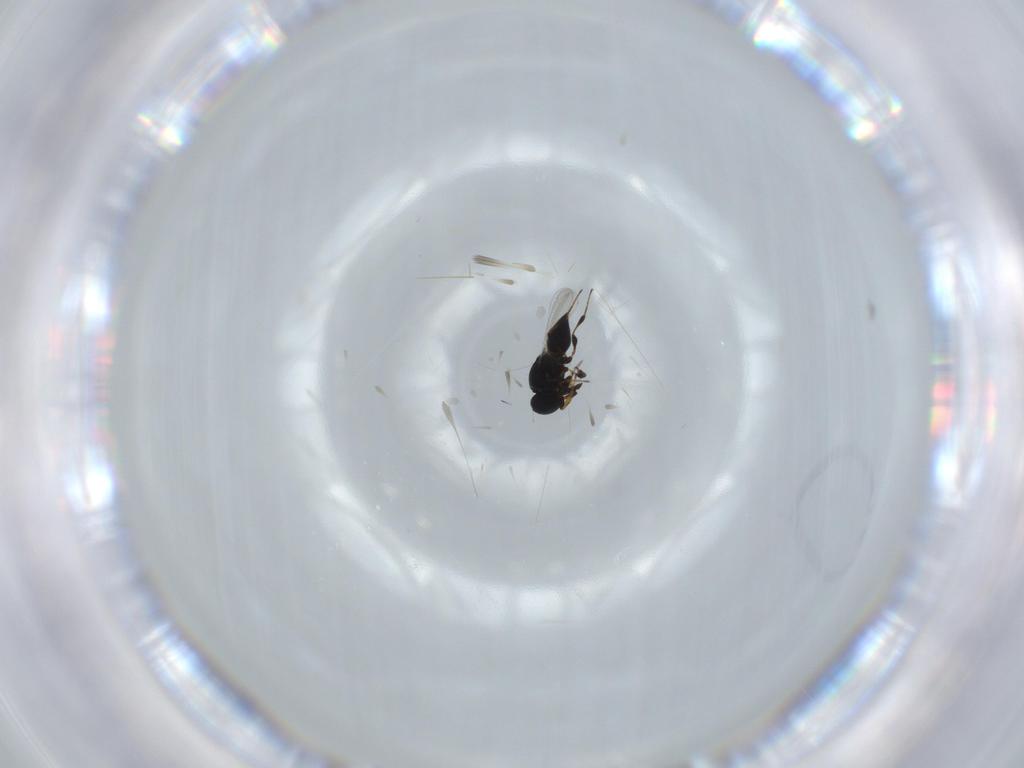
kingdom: Animalia
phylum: Arthropoda
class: Insecta
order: Hymenoptera
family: Platygastridae
